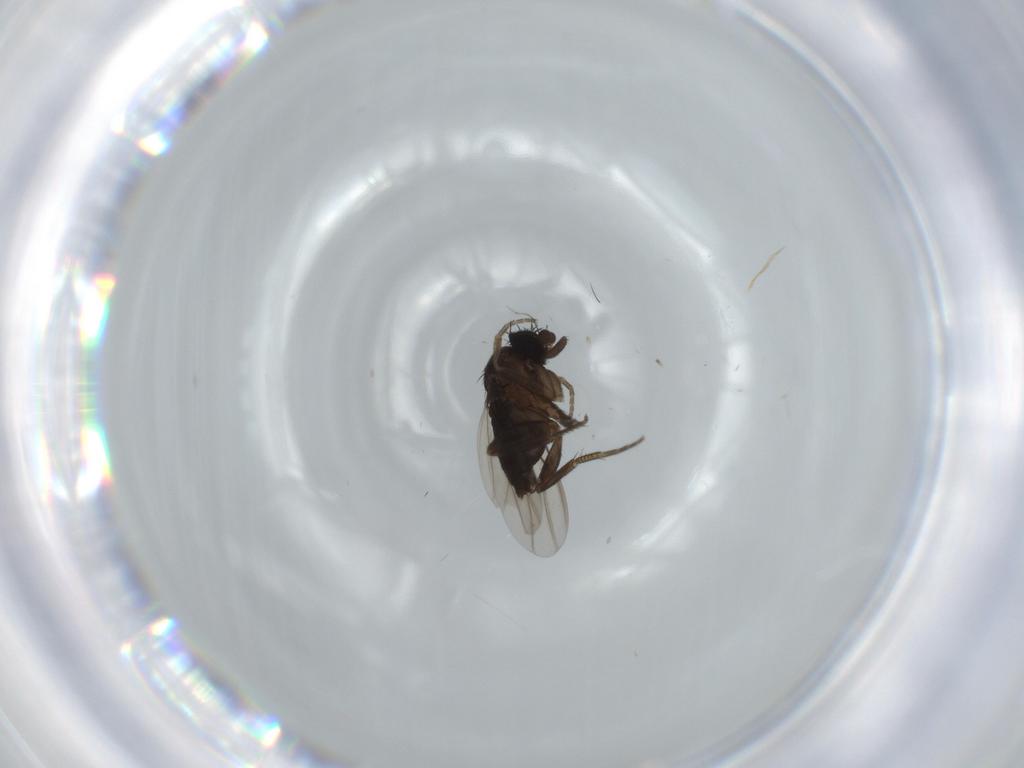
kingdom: Animalia
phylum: Arthropoda
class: Insecta
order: Diptera
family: Phoridae
